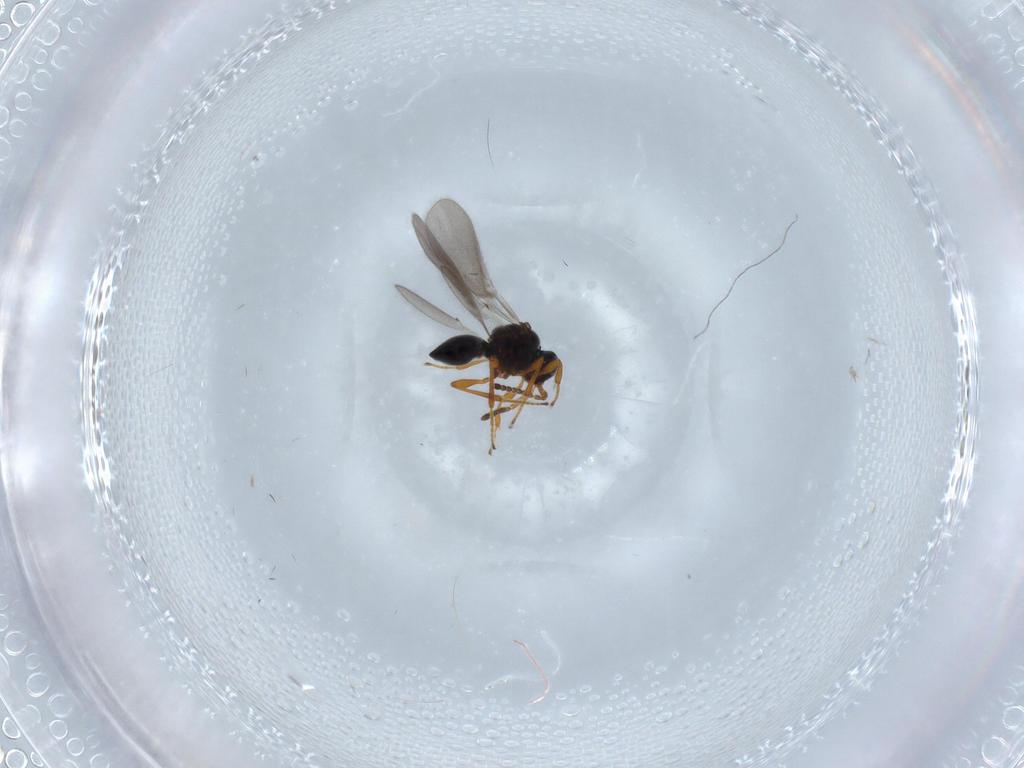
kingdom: Animalia
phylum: Arthropoda
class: Insecta
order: Hymenoptera
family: Platygastridae
